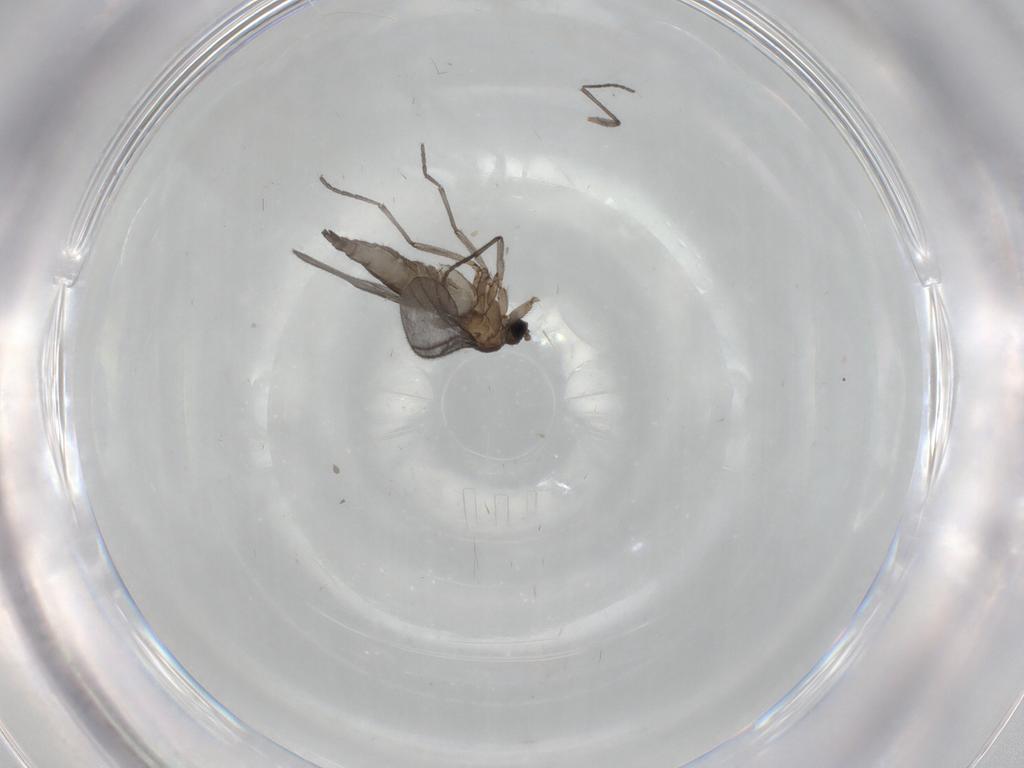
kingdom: Animalia
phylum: Arthropoda
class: Insecta
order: Diptera
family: Sciaridae
